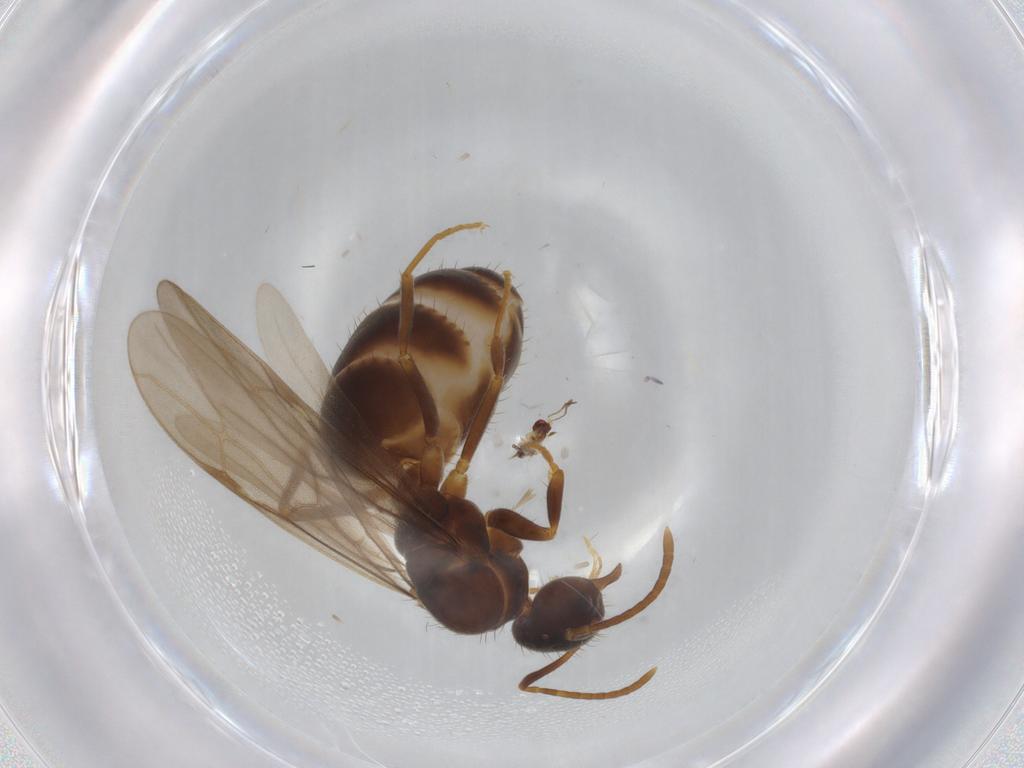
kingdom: Animalia
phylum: Arthropoda
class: Insecta
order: Hymenoptera
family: Formicidae
